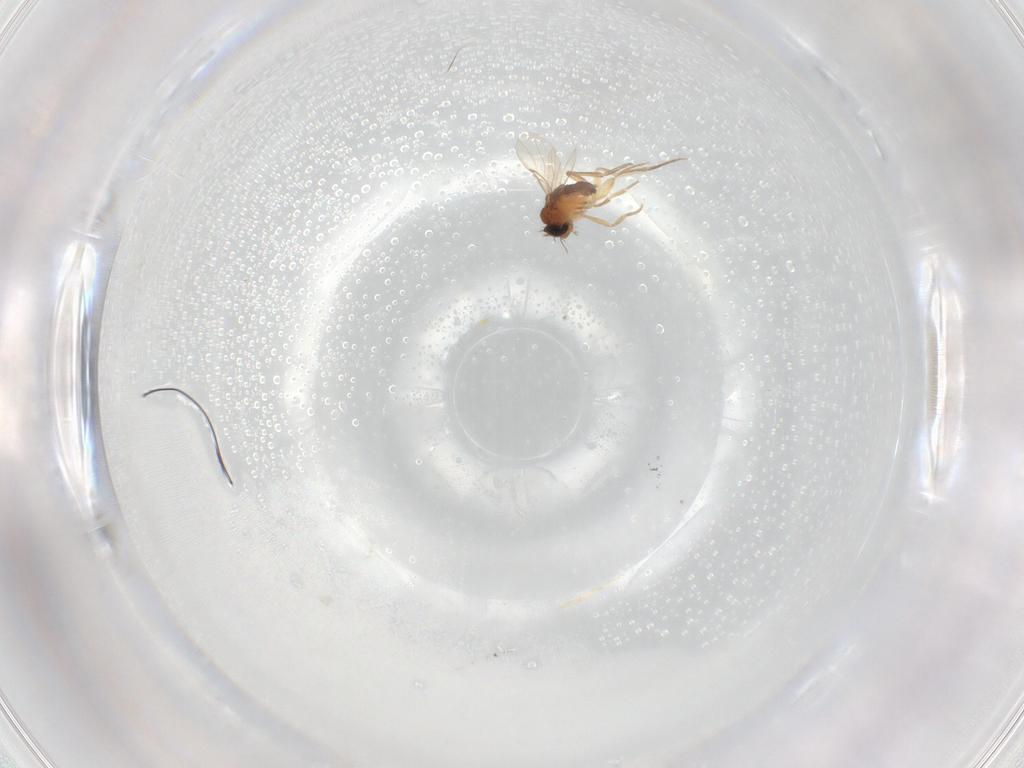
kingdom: Animalia
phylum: Arthropoda
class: Insecta
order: Diptera
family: Phoridae
